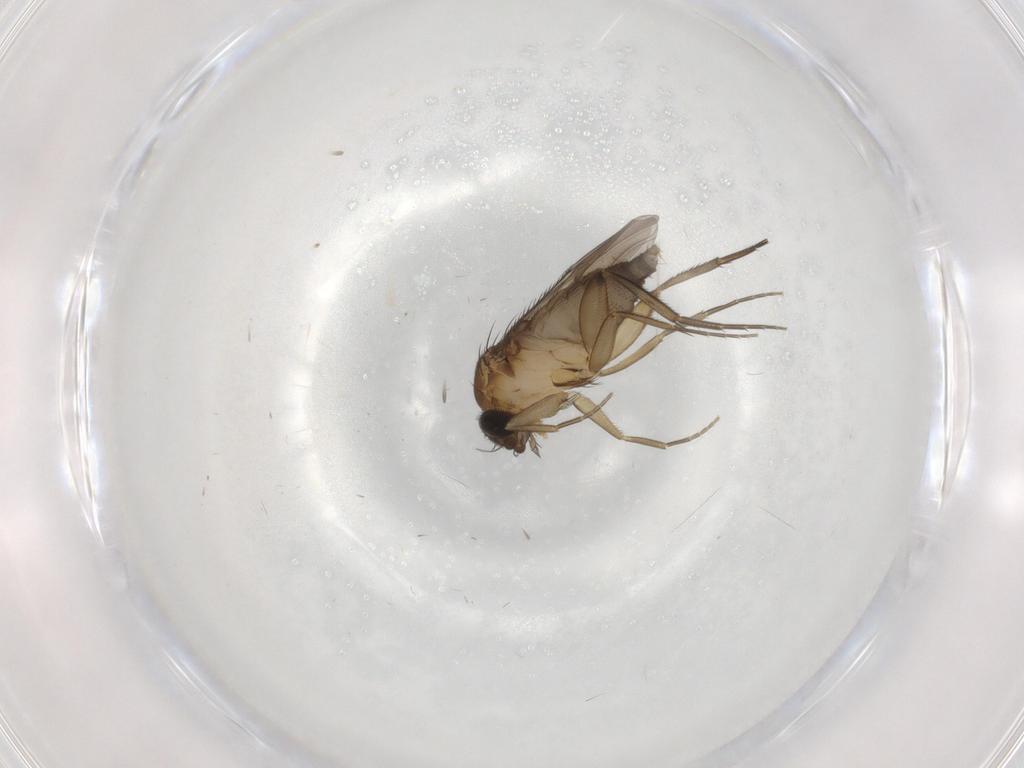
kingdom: Animalia
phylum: Arthropoda
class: Insecta
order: Diptera
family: Phoridae
